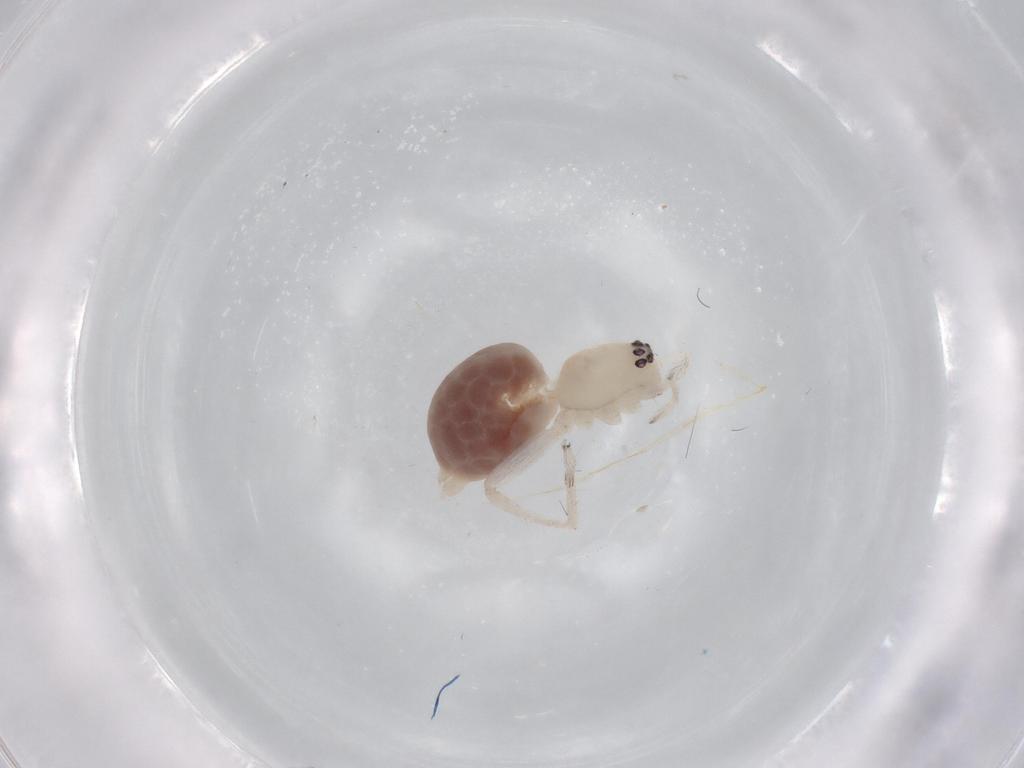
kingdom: Animalia
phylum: Arthropoda
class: Arachnida
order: Araneae
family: Anyphaenidae
